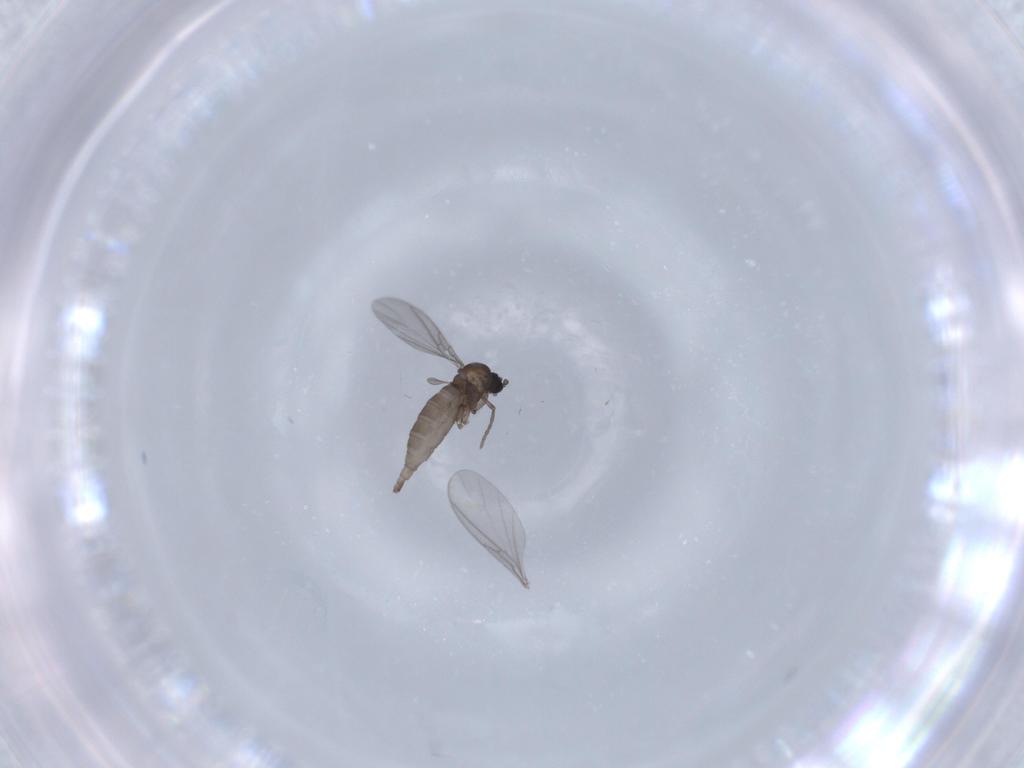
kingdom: Animalia
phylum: Arthropoda
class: Insecta
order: Diptera
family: Sciaridae
